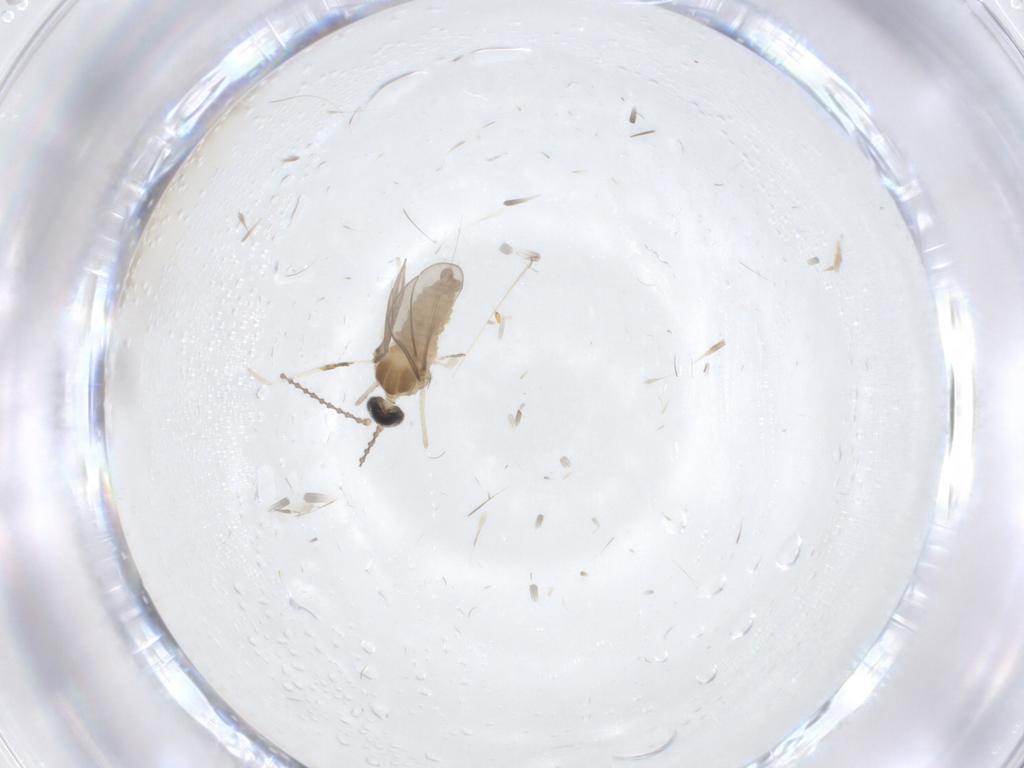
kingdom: Animalia
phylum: Arthropoda
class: Insecta
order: Diptera
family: Cecidomyiidae
